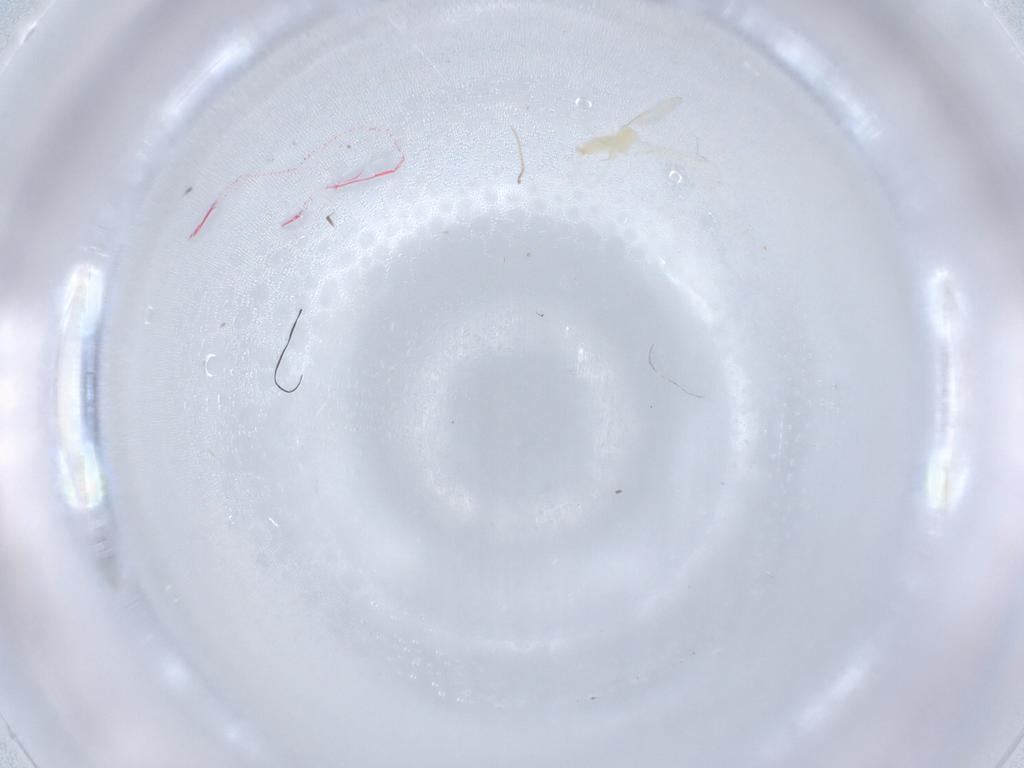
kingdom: Animalia
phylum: Arthropoda
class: Insecta
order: Diptera
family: Cecidomyiidae
